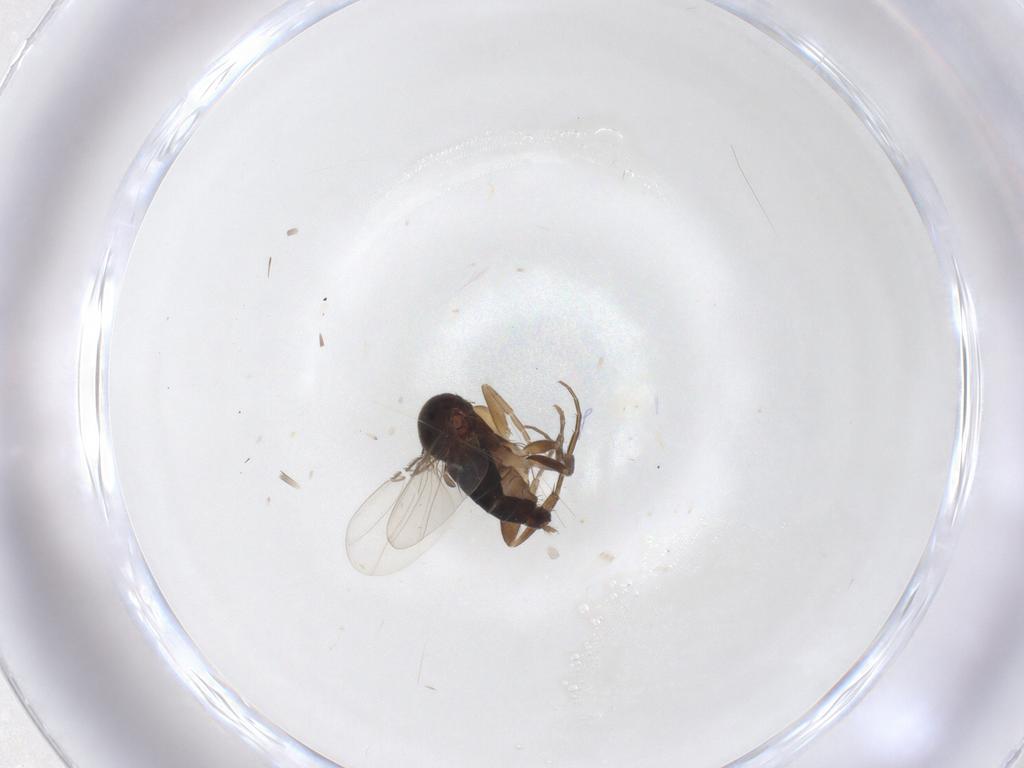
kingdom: Animalia
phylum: Arthropoda
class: Insecta
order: Diptera
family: Phoridae
